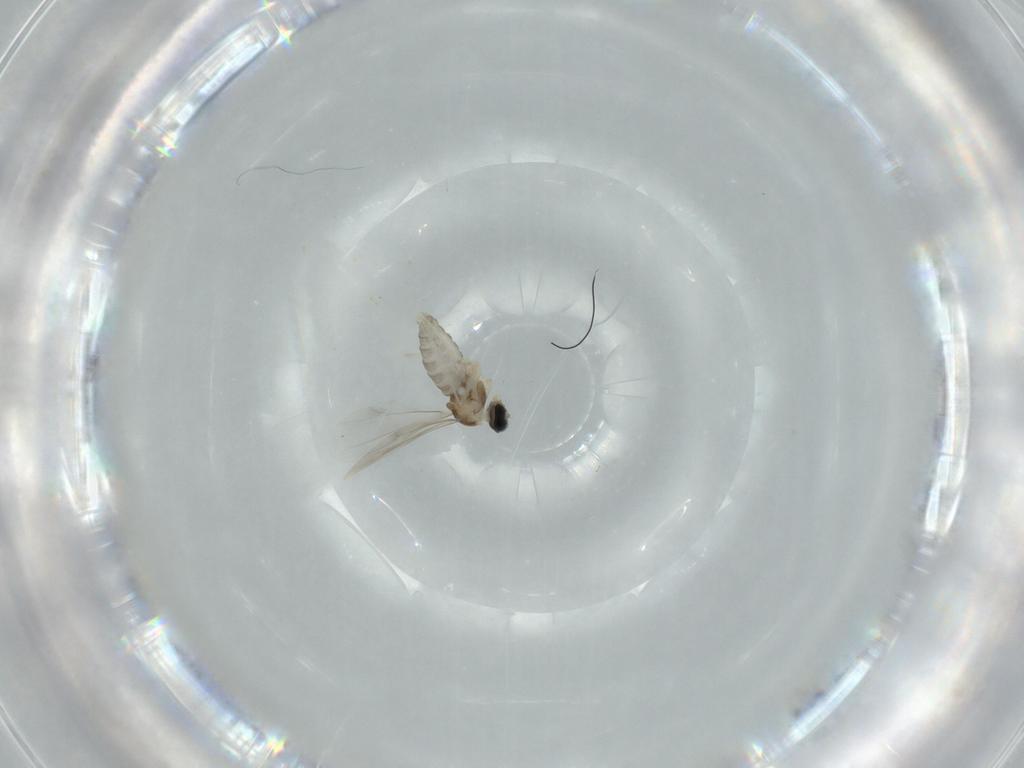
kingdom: Animalia
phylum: Arthropoda
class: Insecta
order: Diptera
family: Cecidomyiidae
